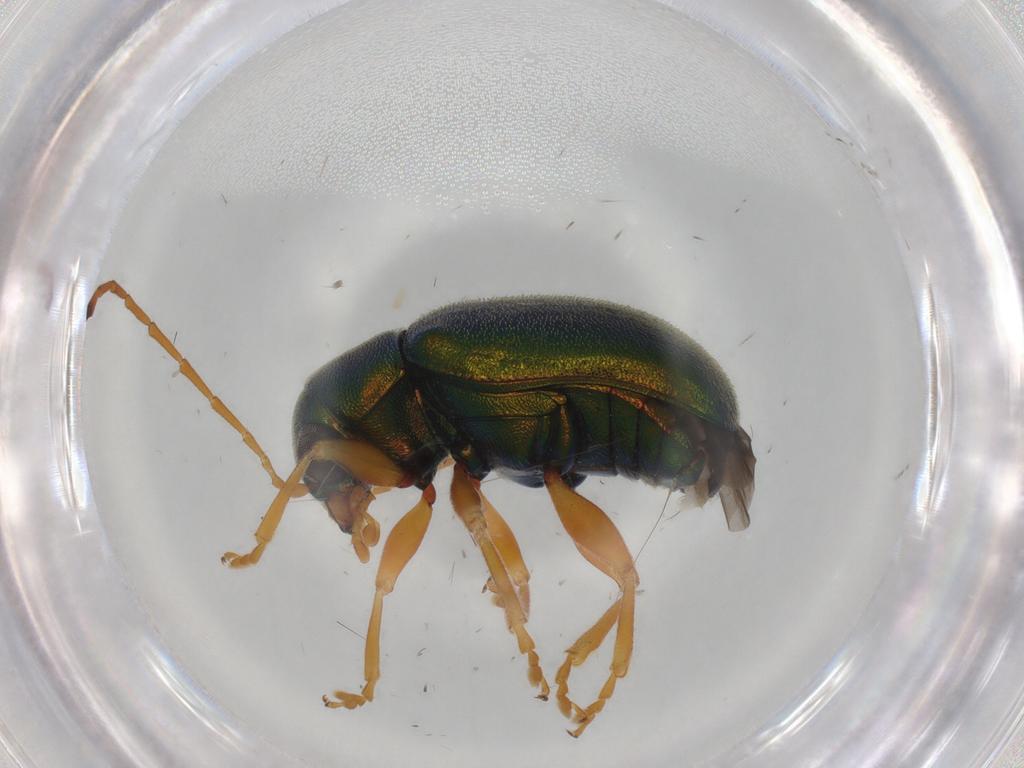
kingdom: Animalia
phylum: Arthropoda
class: Insecta
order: Coleoptera
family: Chrysomelidae
